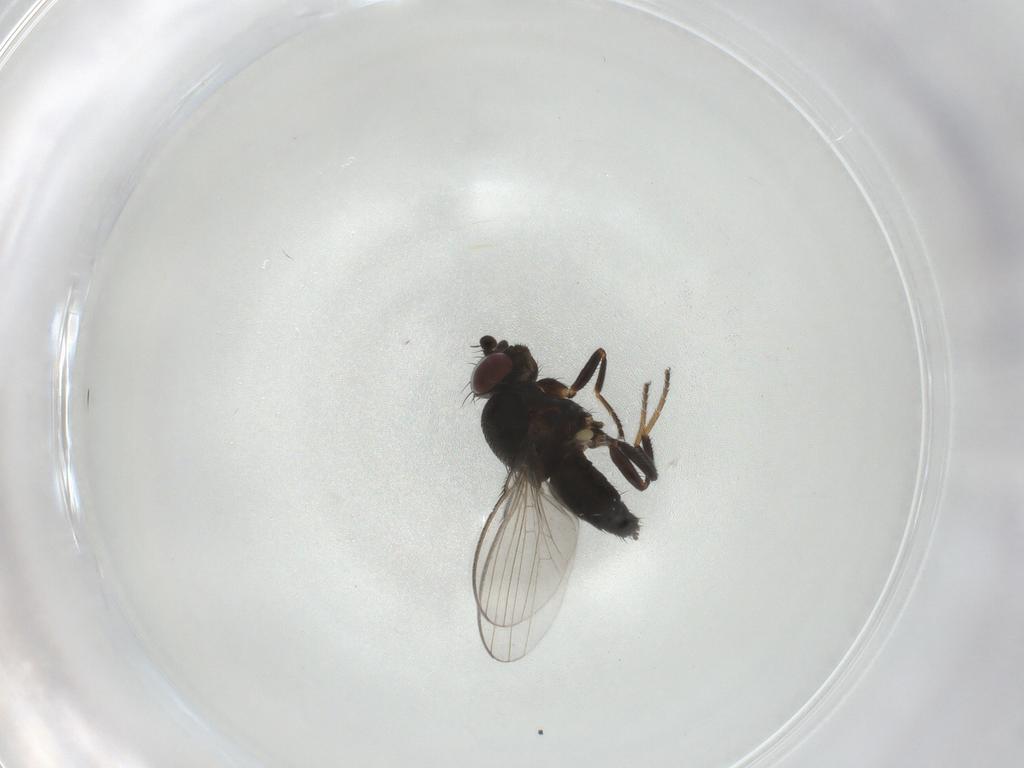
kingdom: Animalia
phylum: Arthropoda
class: Insecta
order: Diptera
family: Milichiidae
